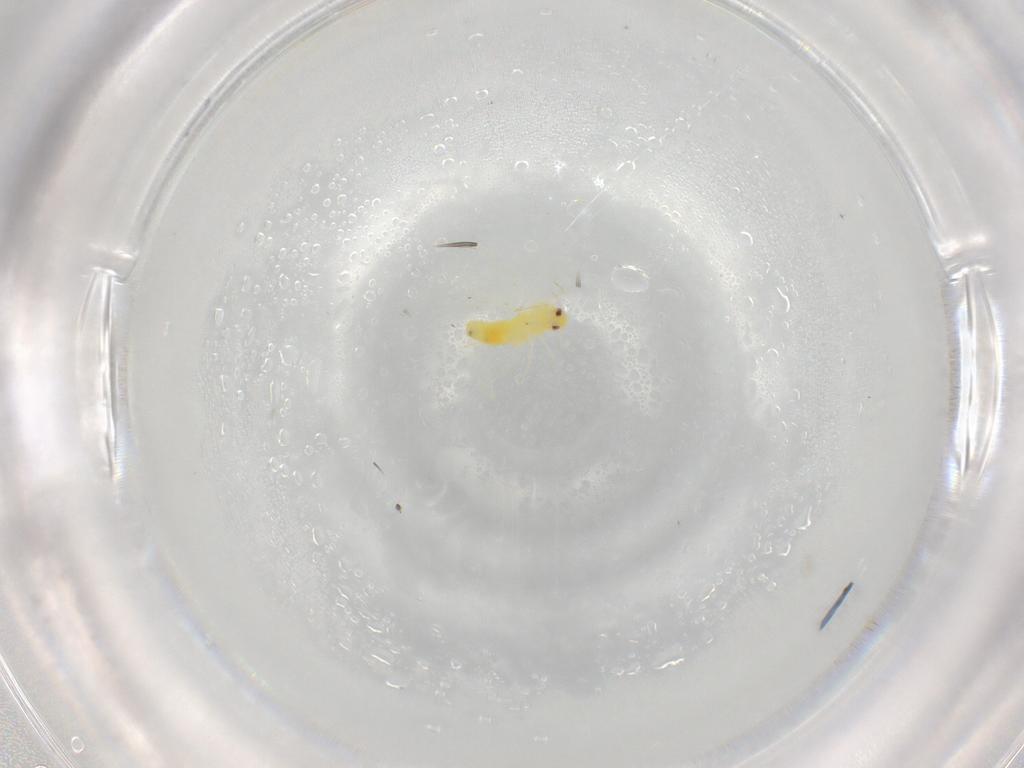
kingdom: Animalia
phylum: Arthropoda
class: Insecta
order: Hemiptera
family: Aleyrodidae
